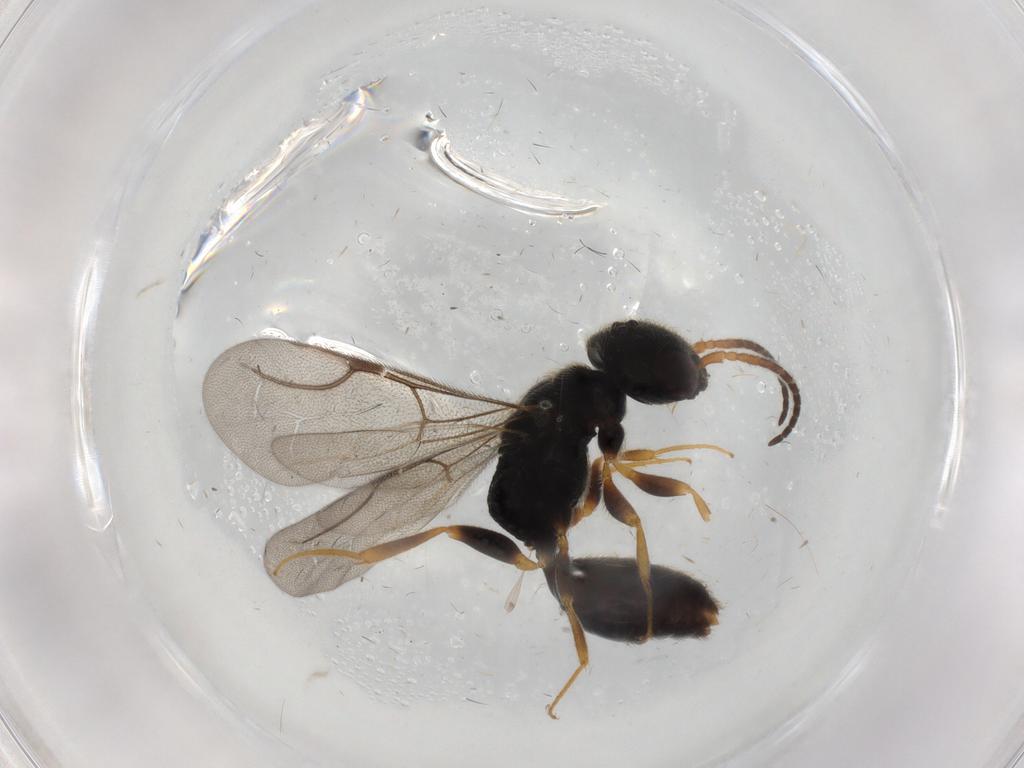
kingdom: Animalia
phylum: Arthropoda
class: Insecta
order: Hymenoptera
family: Bethylidae
